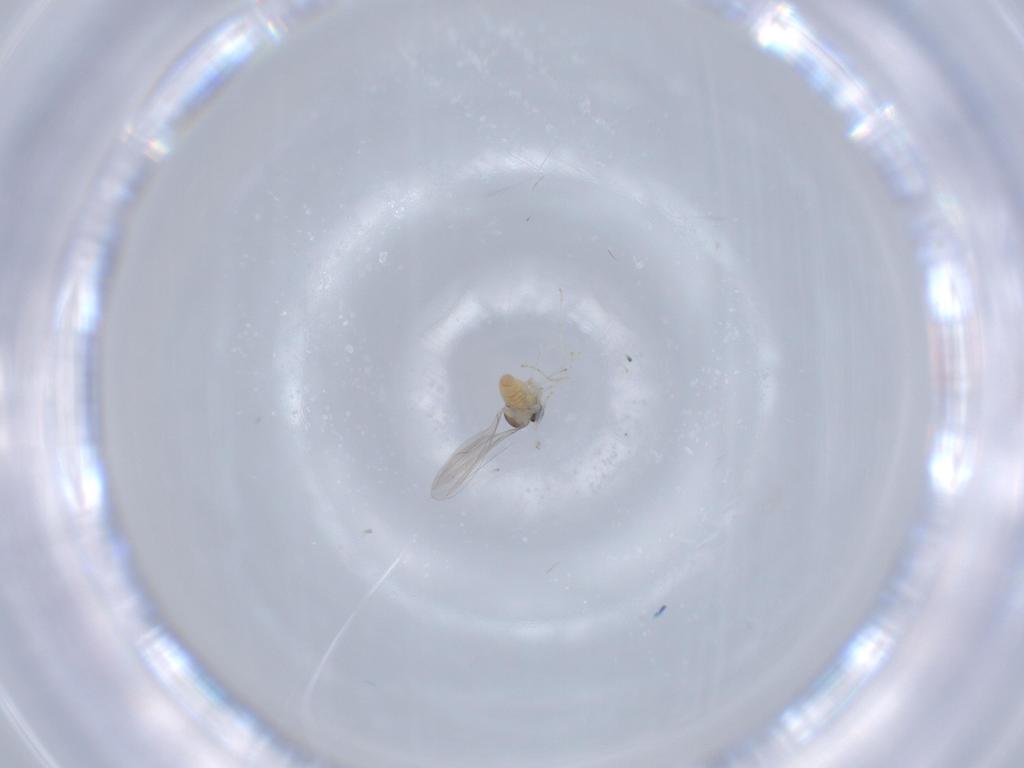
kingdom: Animalia
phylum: Arthropoda
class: Insecta
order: Diptera
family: Cecidomyiidae
